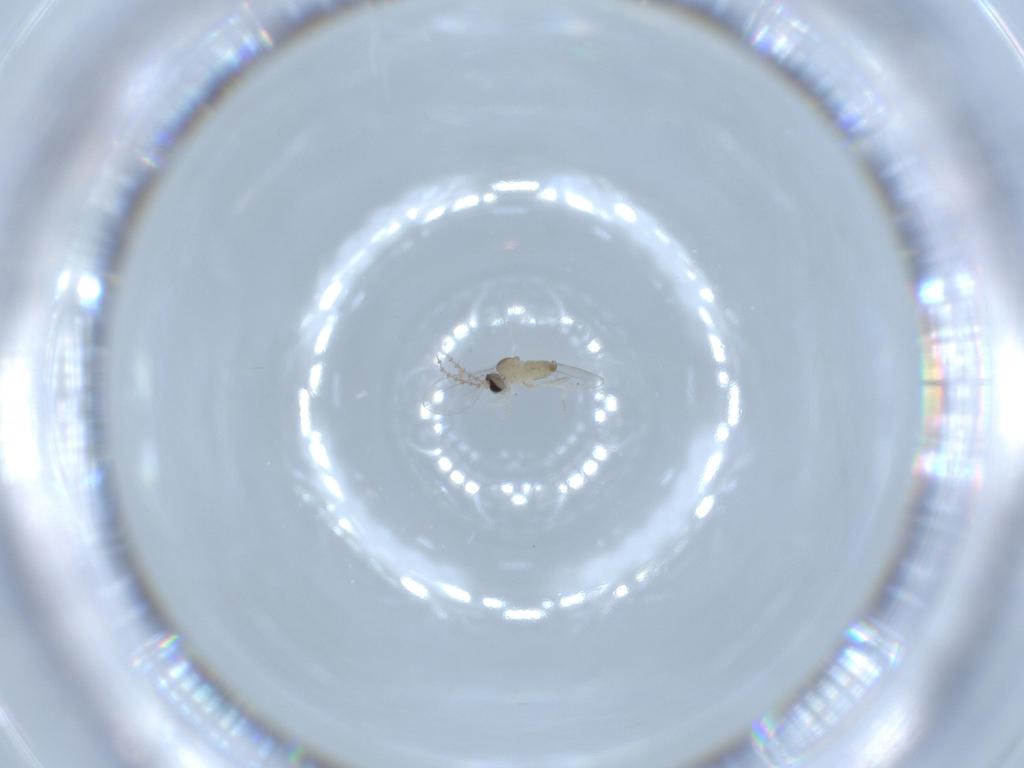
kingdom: Animalia
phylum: Arthropoda
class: Insecta
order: Diptera
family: Cecidomyiidae
